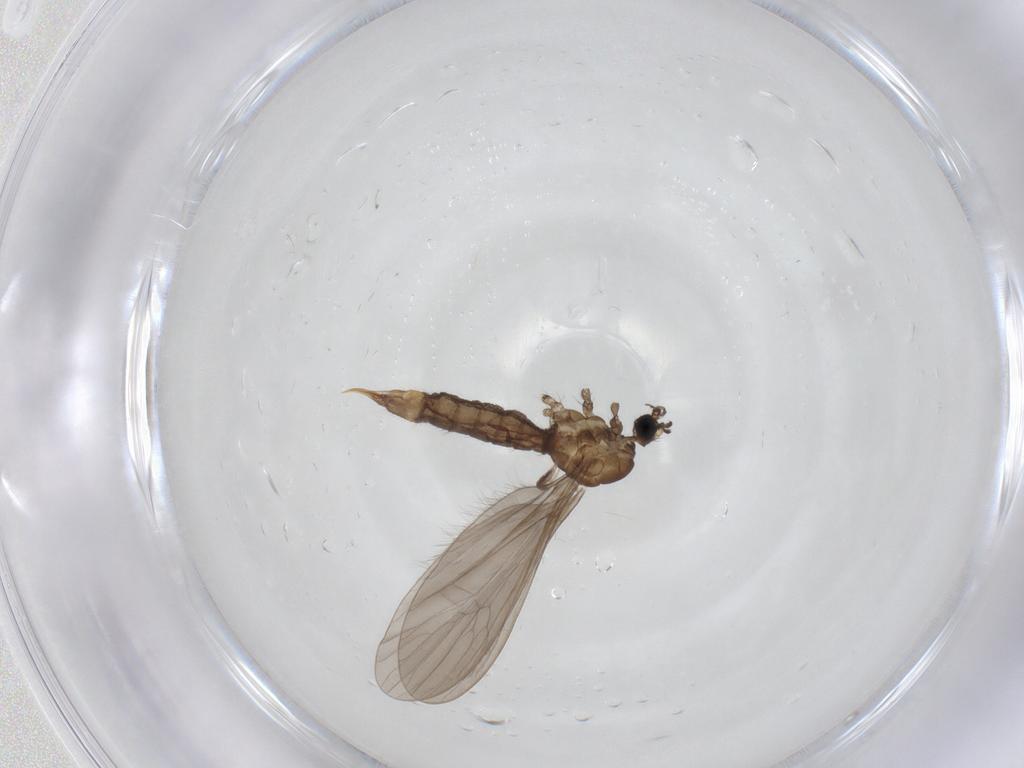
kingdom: Animalia
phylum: Arthropoda
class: Insecta
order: Diptera
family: Limoniidae
